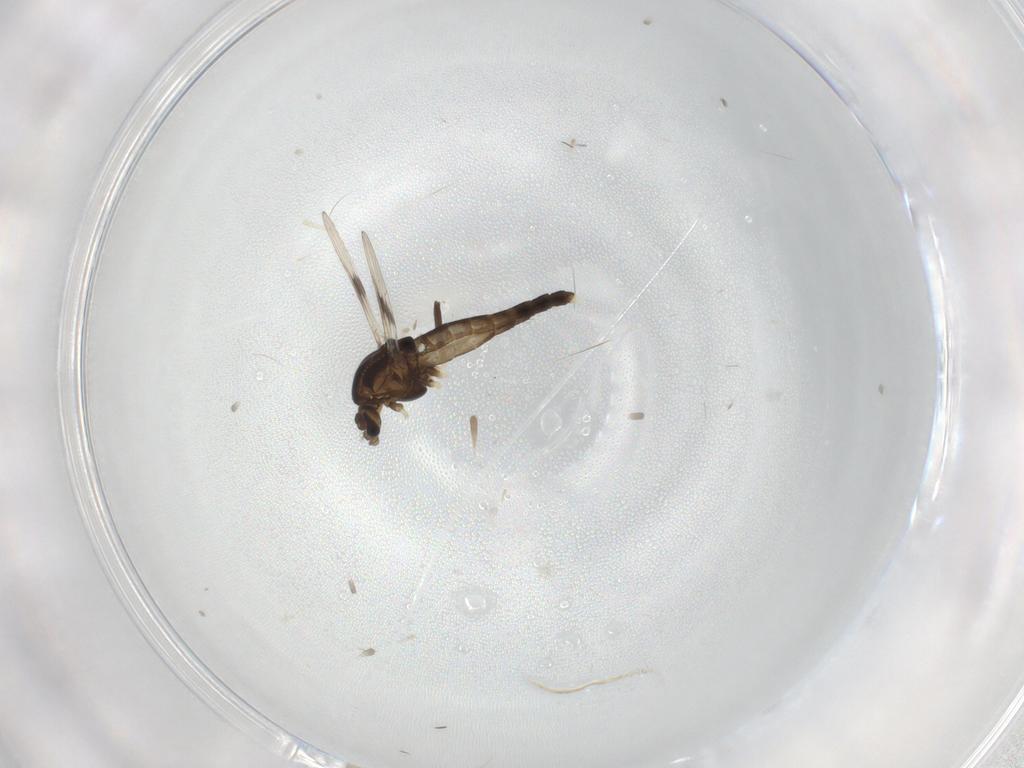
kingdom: Animalia
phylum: Arthropoda
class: Insecta
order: Diptera
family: Chironomidae
